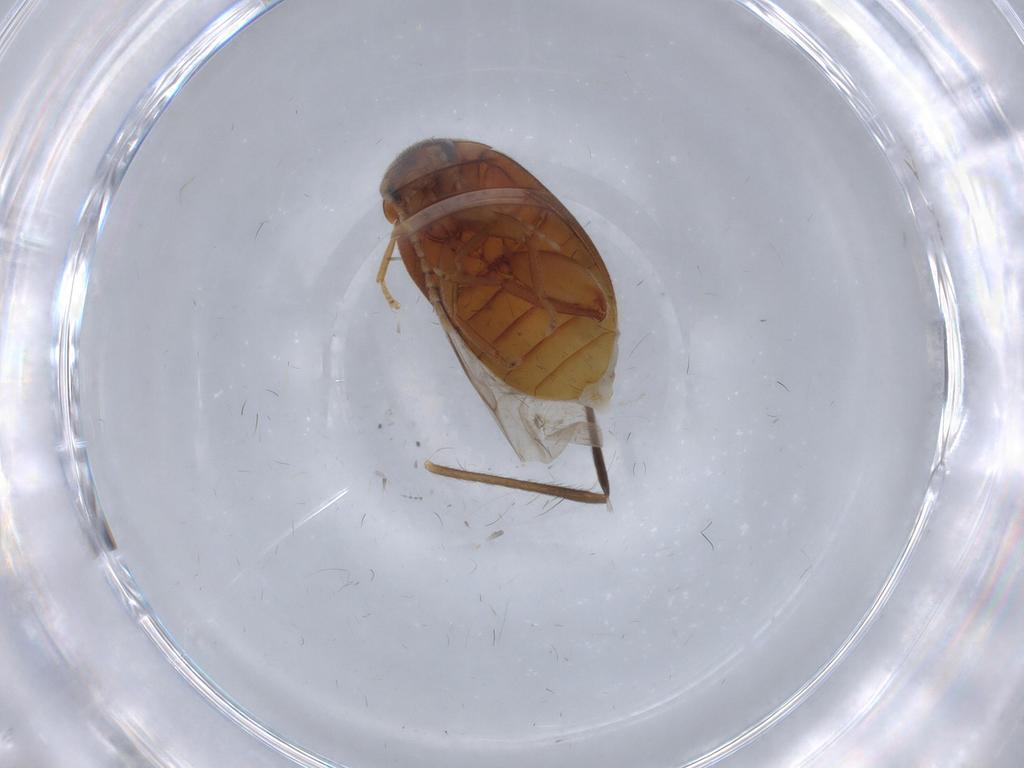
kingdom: Animalia
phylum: Arthropoda
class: Insecta
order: Coleoptera
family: Scirtidae
